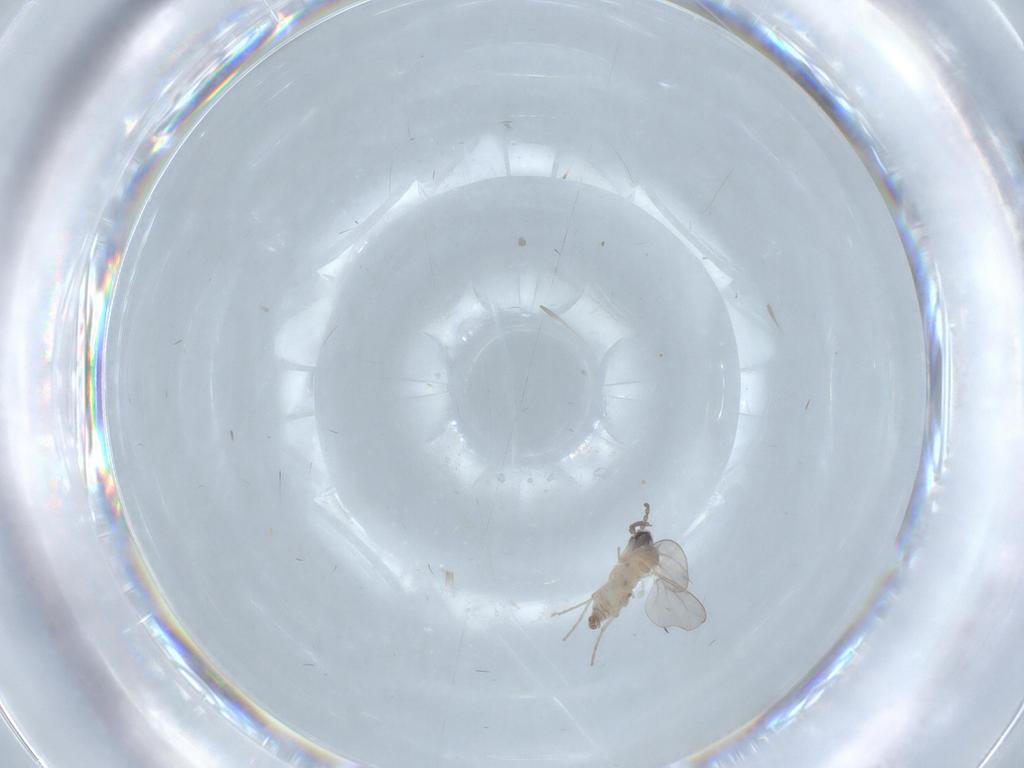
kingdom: Animalia
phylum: Arthropoda
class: Insecta
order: Diptera
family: Cecidomyiidae
